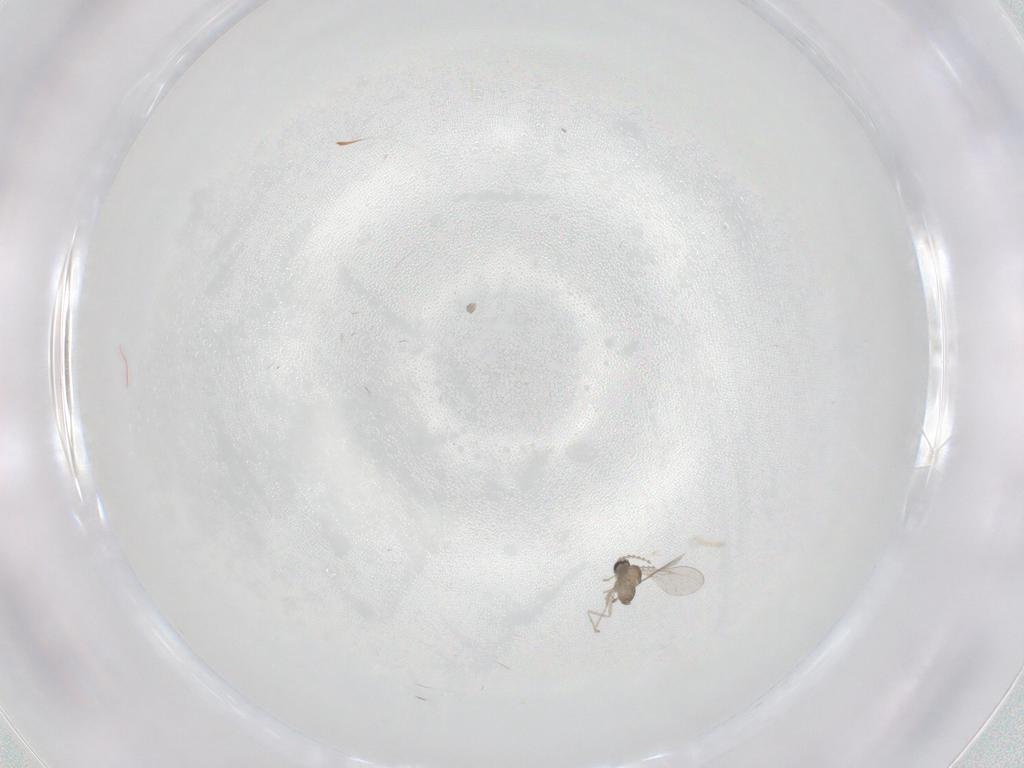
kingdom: Animalia
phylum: Arthropoda
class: Insecta
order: Diptera
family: Cecidomyiidae
